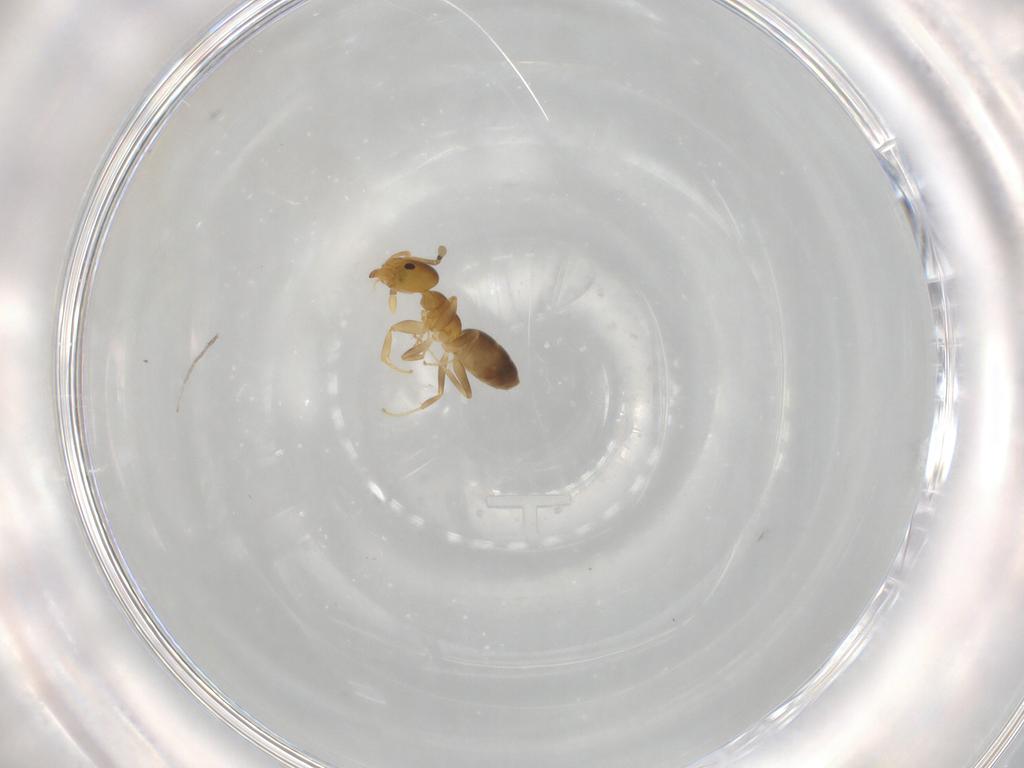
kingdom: Animalia
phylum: Arthropoda
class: Insecta
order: Hymenoptera
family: Formicidae
